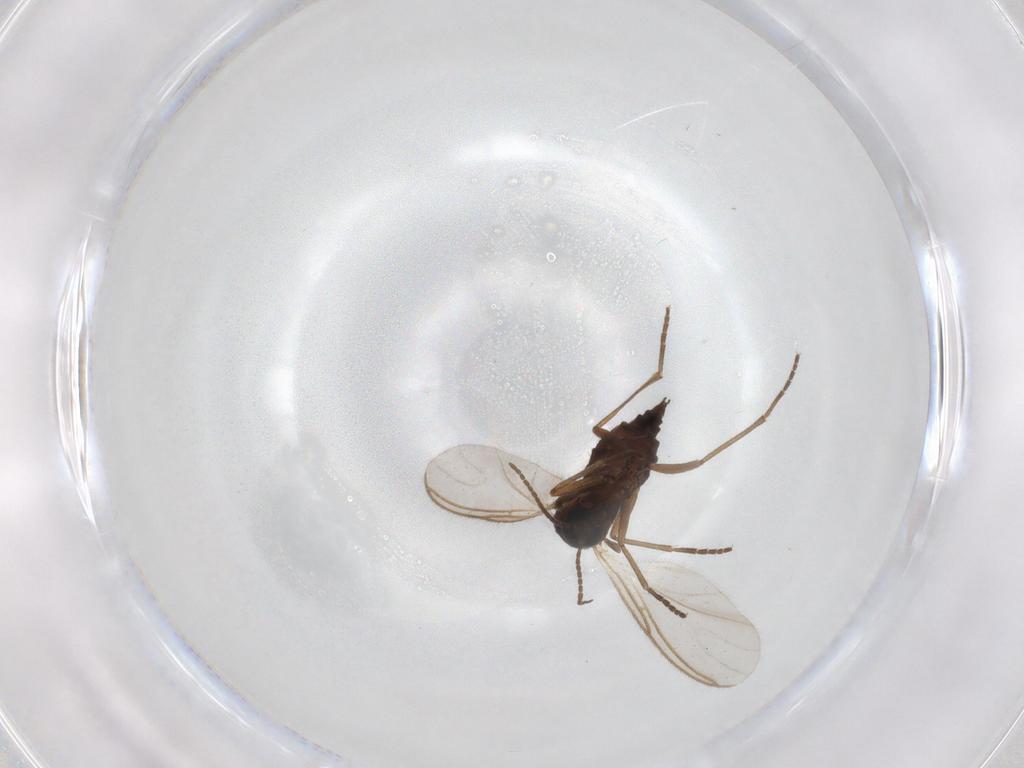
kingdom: Animalia
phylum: Arthropoda
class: Insecta
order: Diptera
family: Sciaridae
